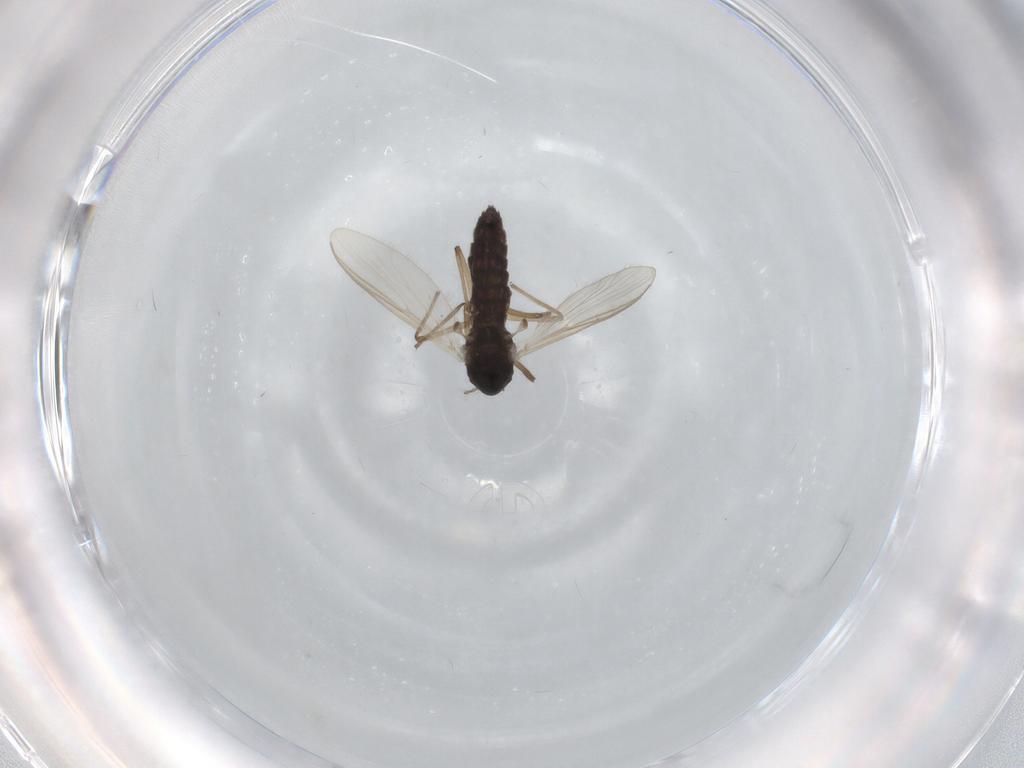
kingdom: Animalia
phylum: Arthropoda
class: Insecta
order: Diptera
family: Chironomidae
